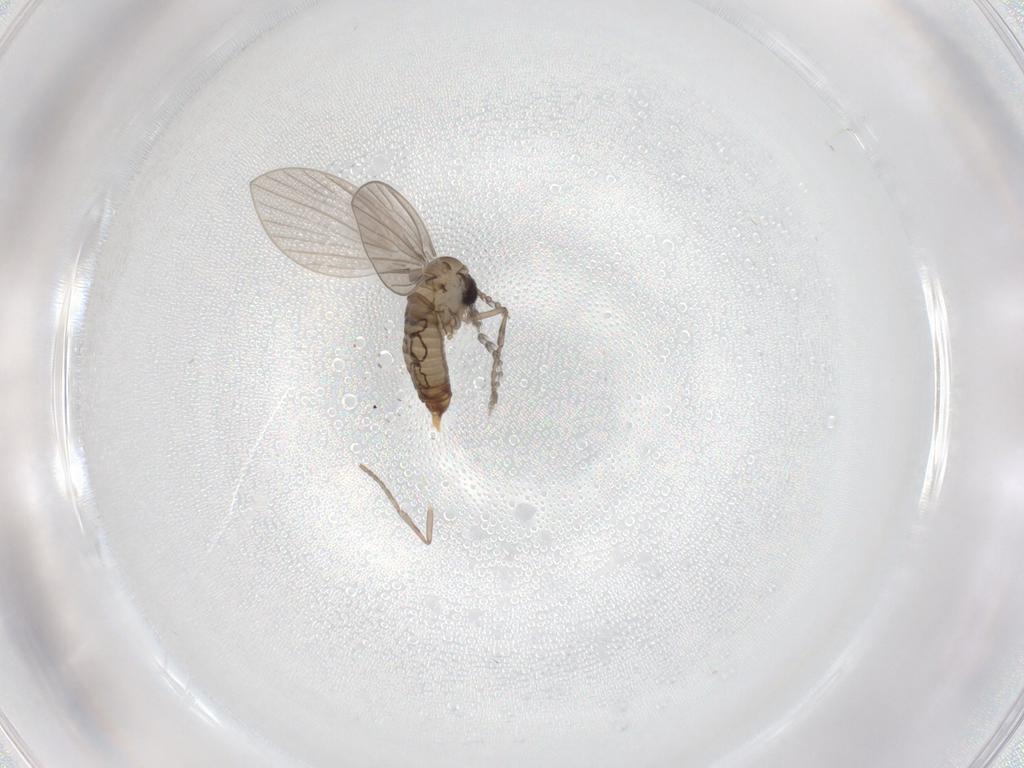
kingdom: Animalia
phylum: Arthropoda
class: Insecta
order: Diptera
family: Psychodidae
